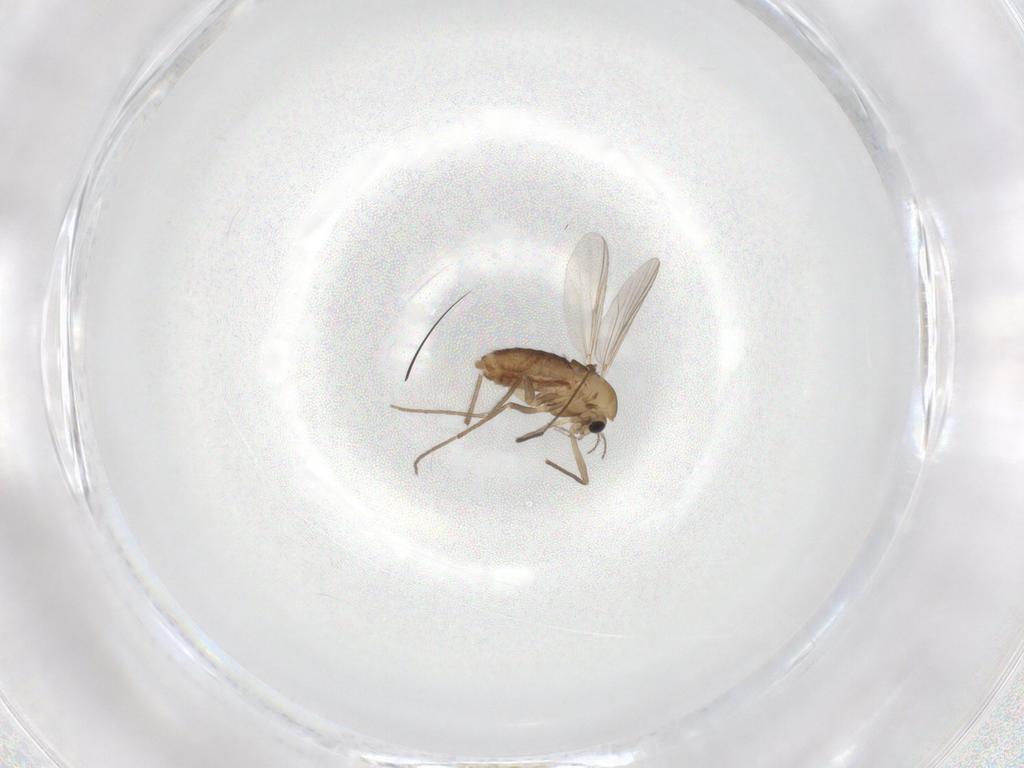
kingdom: Animalia
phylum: Arthropoda
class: Insecta
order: Diptera
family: Chironomidae
